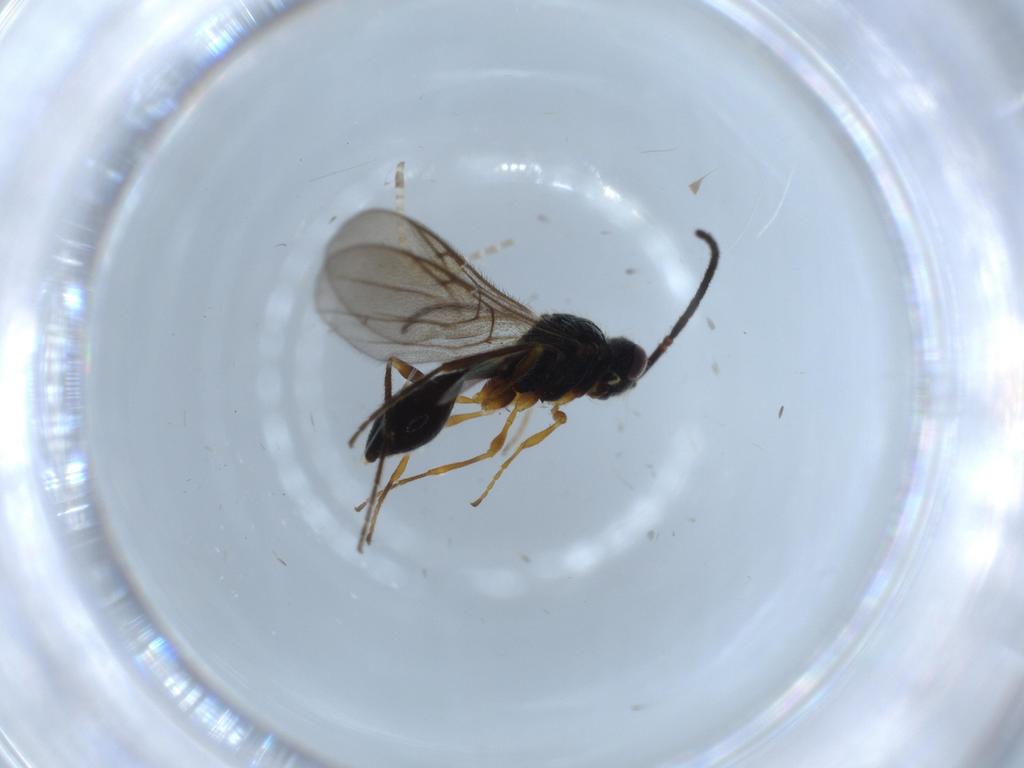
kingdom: Animalia
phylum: Arthropoda
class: Insecta
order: Hymenoptera
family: Diapriidae
